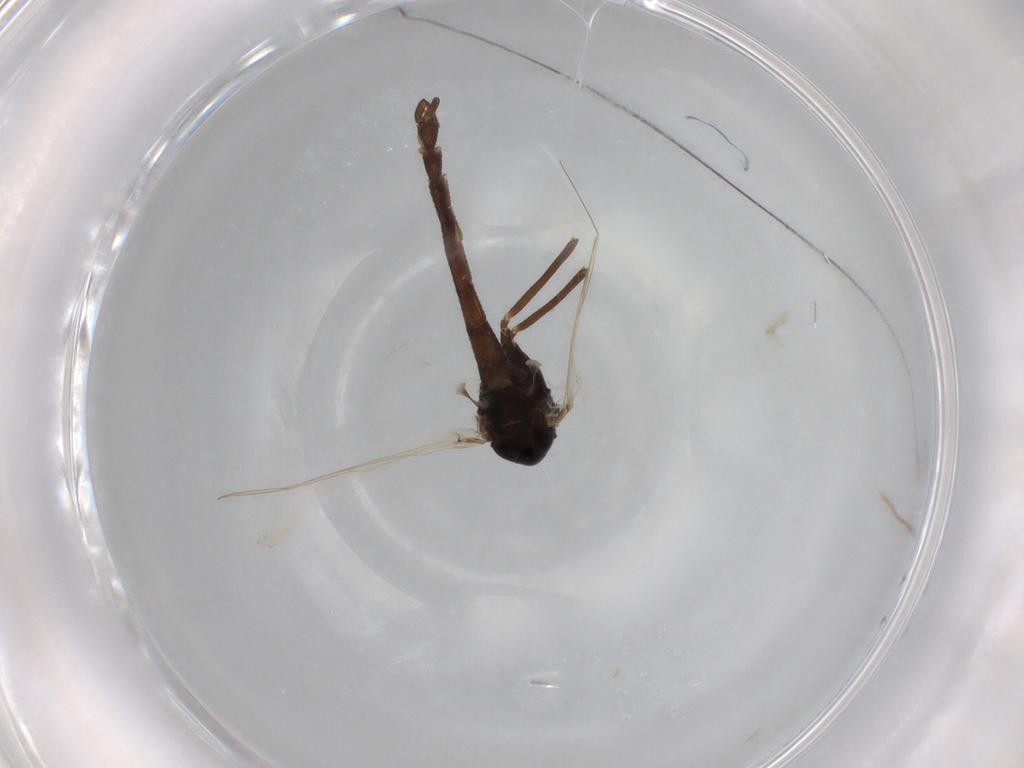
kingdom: Animalia
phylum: Arthropoda
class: Insecta
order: Diptera
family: Chironomidae
